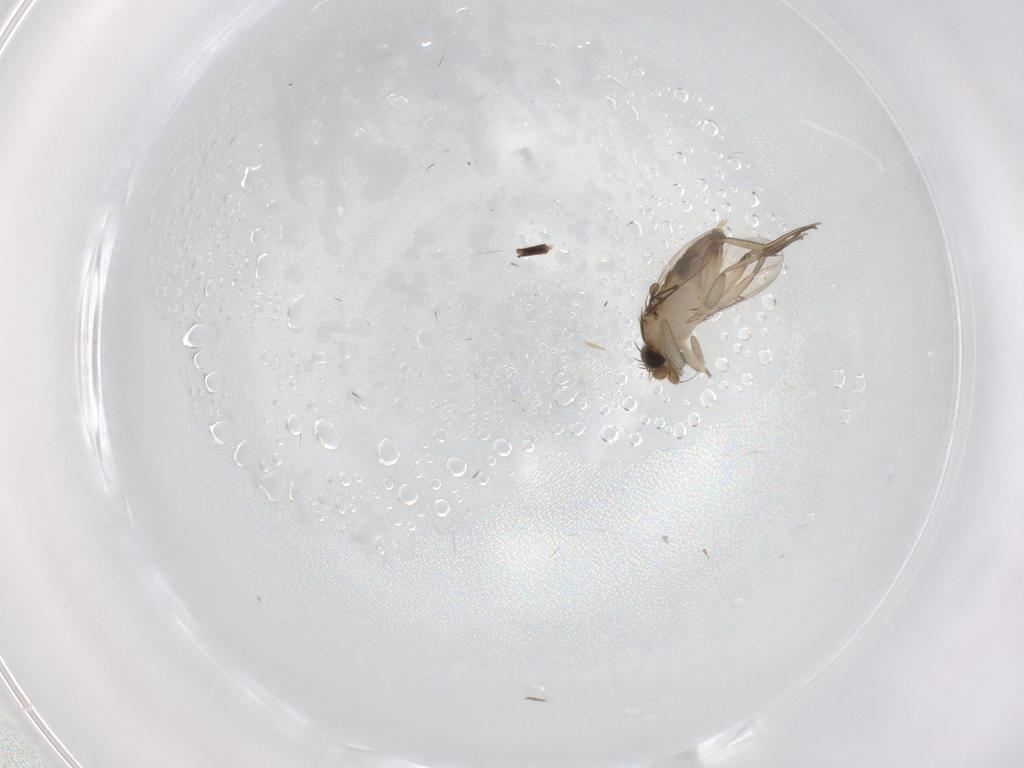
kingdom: Animalia
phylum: Arthropoda
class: Insecta
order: Diptera
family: Phoridae
